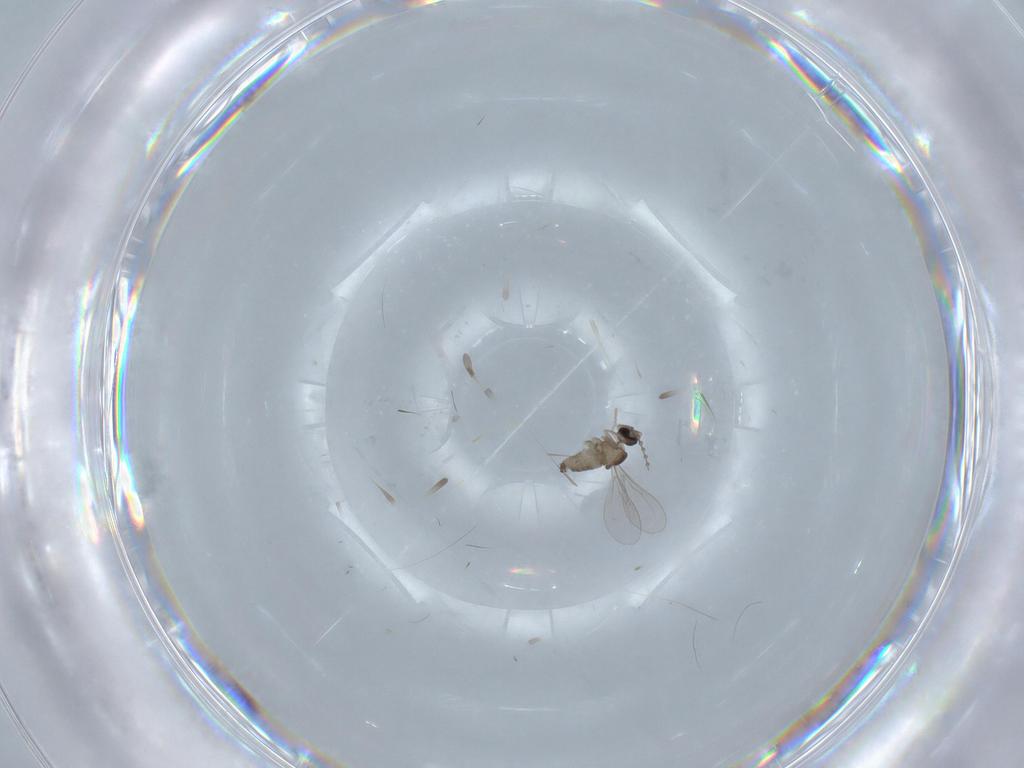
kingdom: Animalia
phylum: Arthropoda
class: Insecta
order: Diptera
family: Cecidomyiidae
